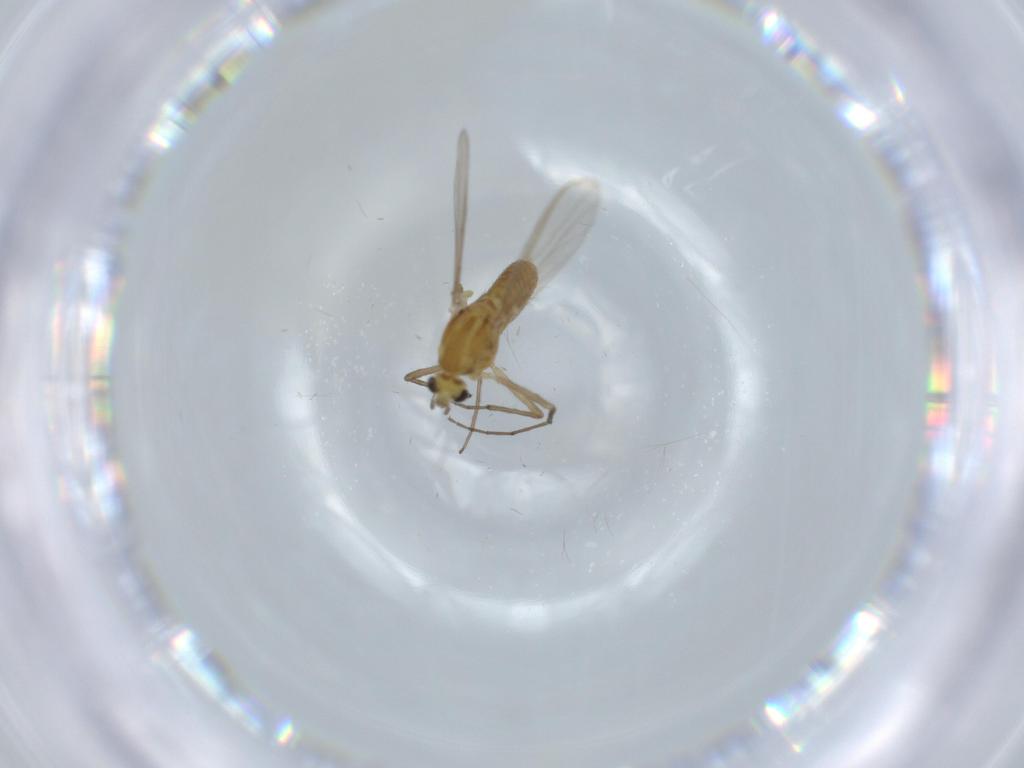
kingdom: Animalia
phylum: Arthropoda
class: Insecta
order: Diptera
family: Chironomidae
